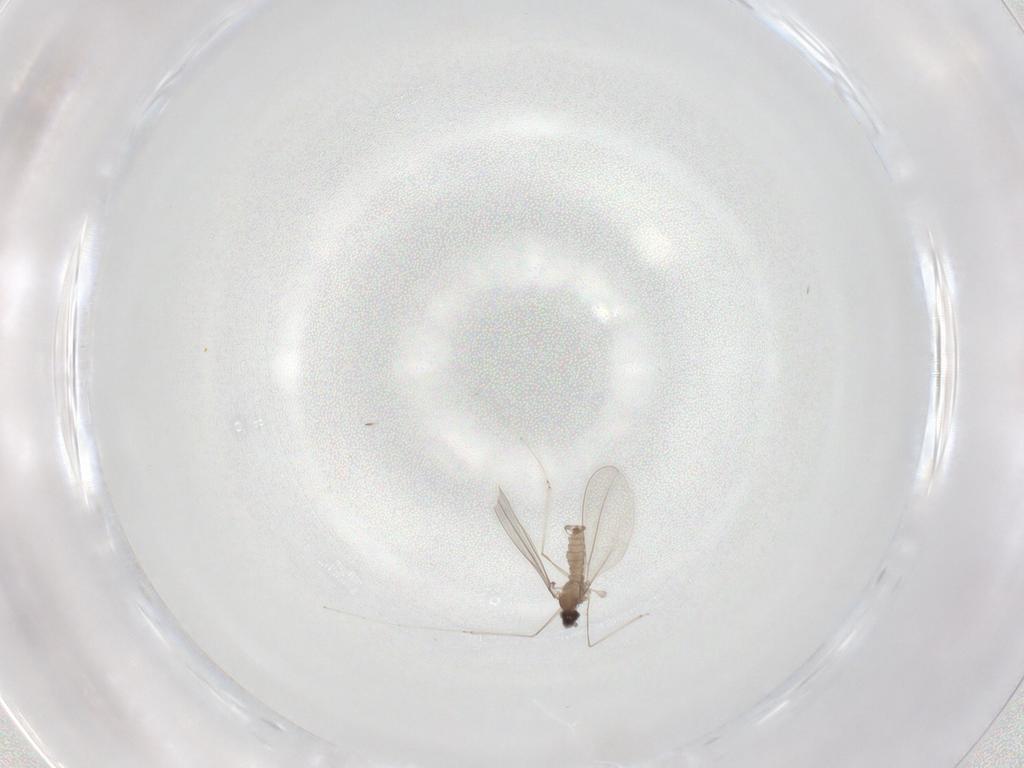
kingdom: Animalia
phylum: Arthropoda
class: Insecta
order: Diptera
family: Cecidomyiidae
